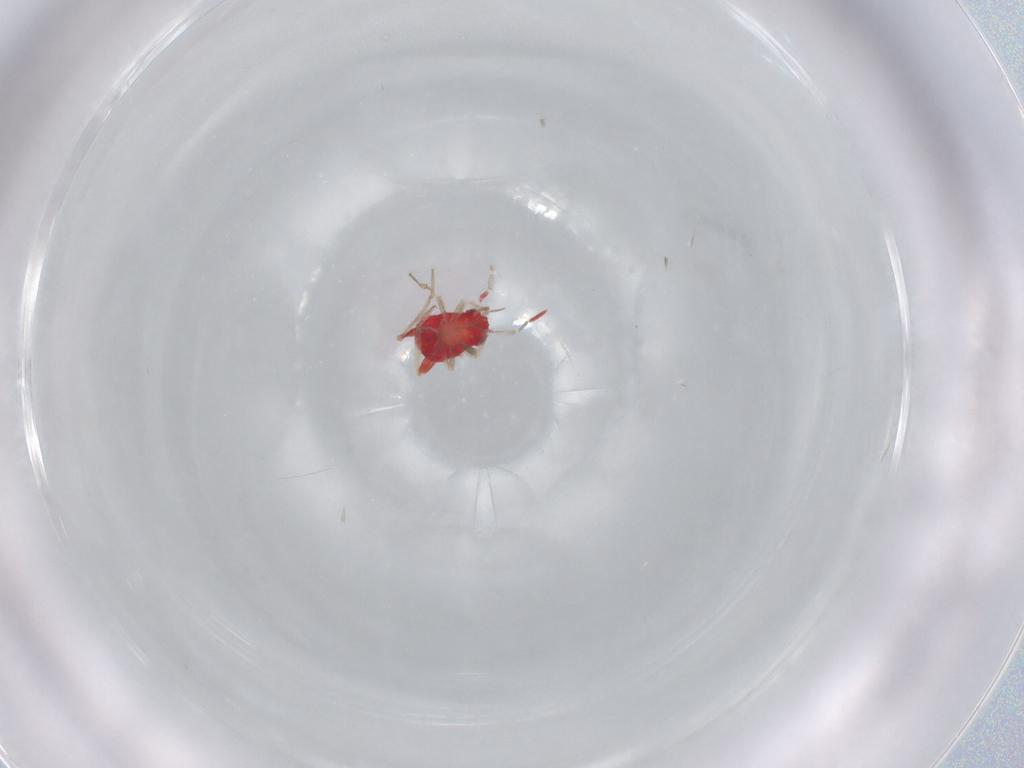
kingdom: Animalia
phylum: Arthropoda
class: Insecta
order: Hemiptera
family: Miridae
